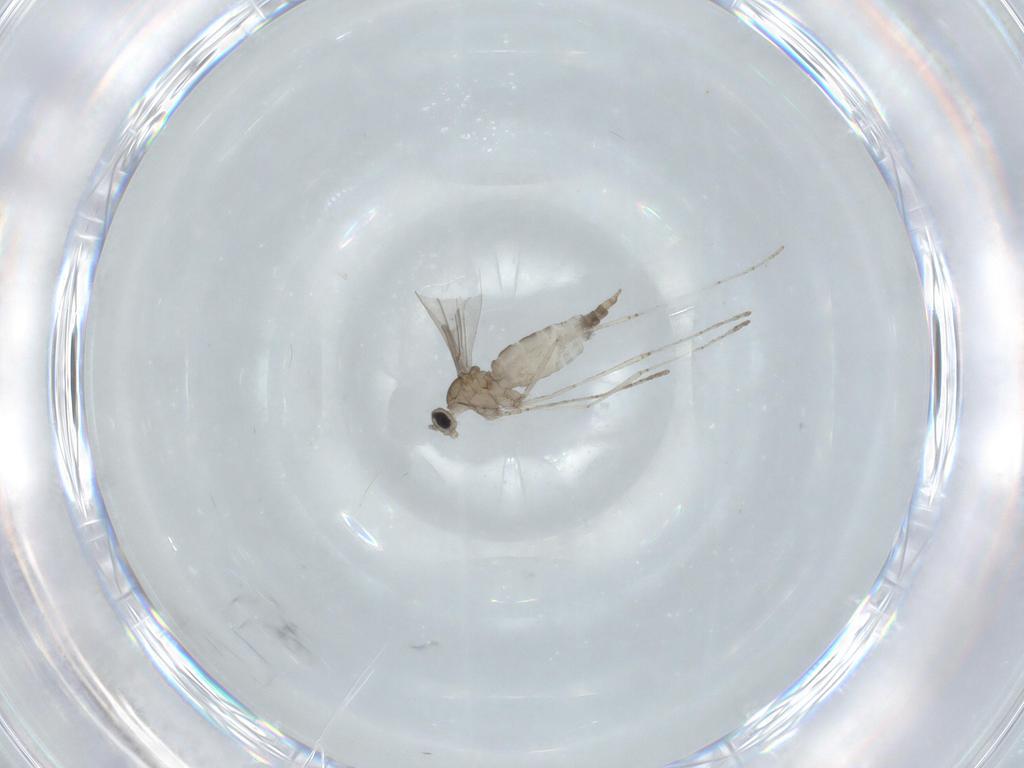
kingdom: Animalia
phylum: Arthropoda
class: Insecta
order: Diptera
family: Cecidomyiidae
